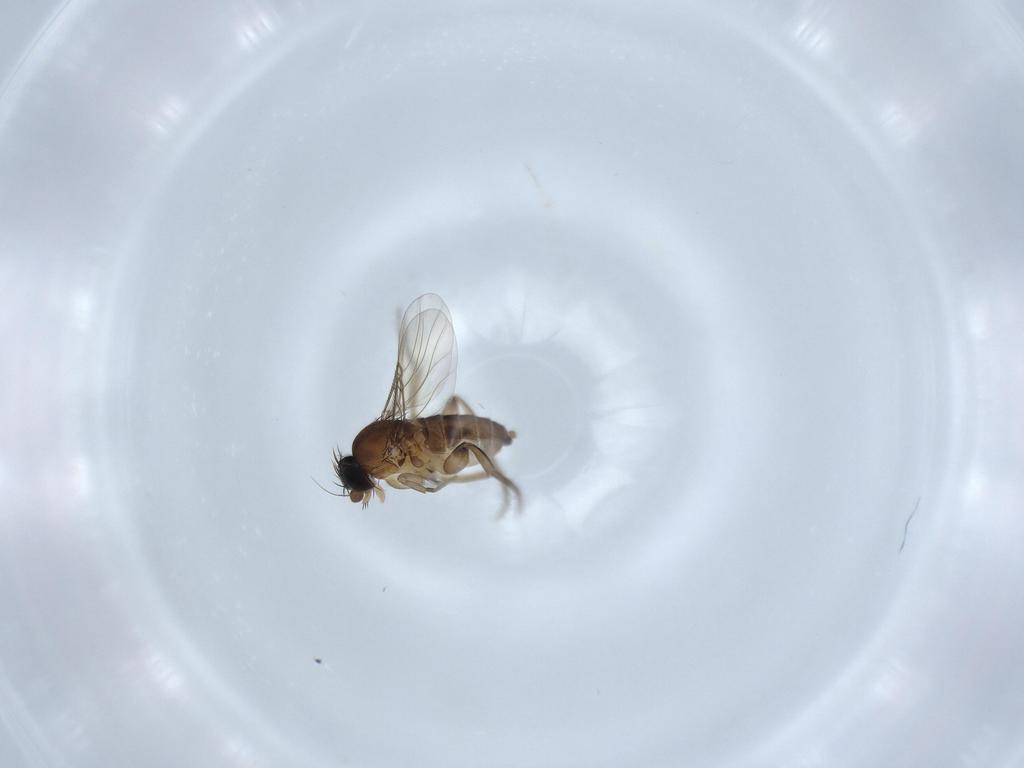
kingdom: Animalia
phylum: Arthropoda
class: Insecta
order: Diptera
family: Phoridae
